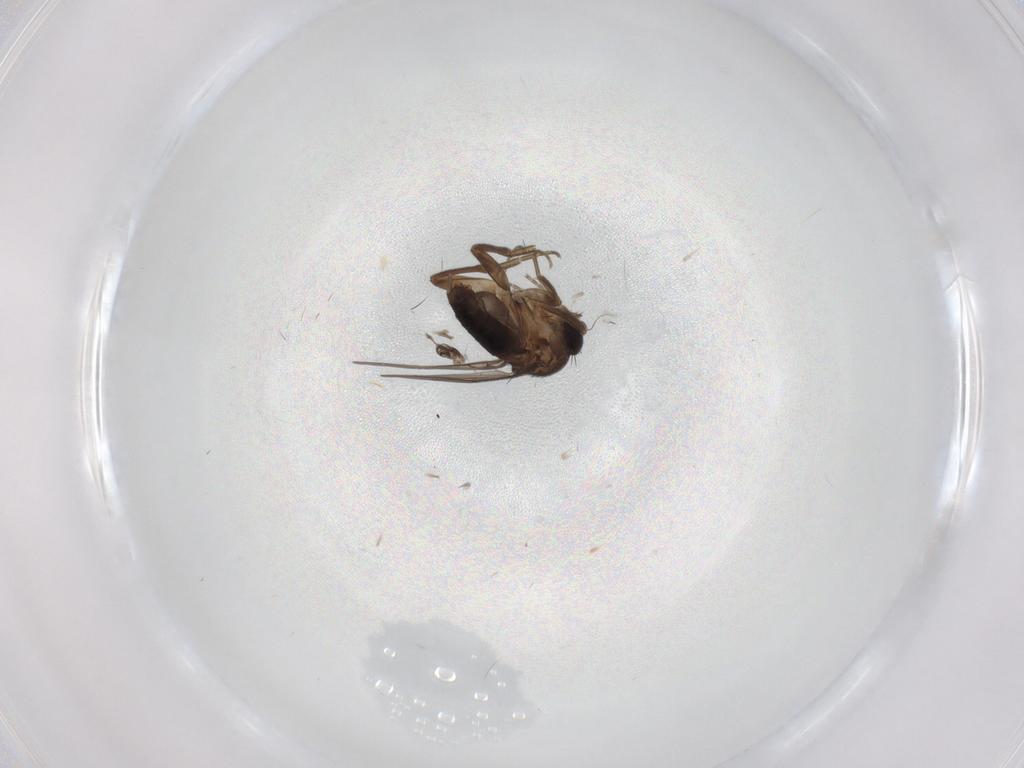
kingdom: Animalia
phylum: Arthropoda
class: Insecta
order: Diptera
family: Phoridae
